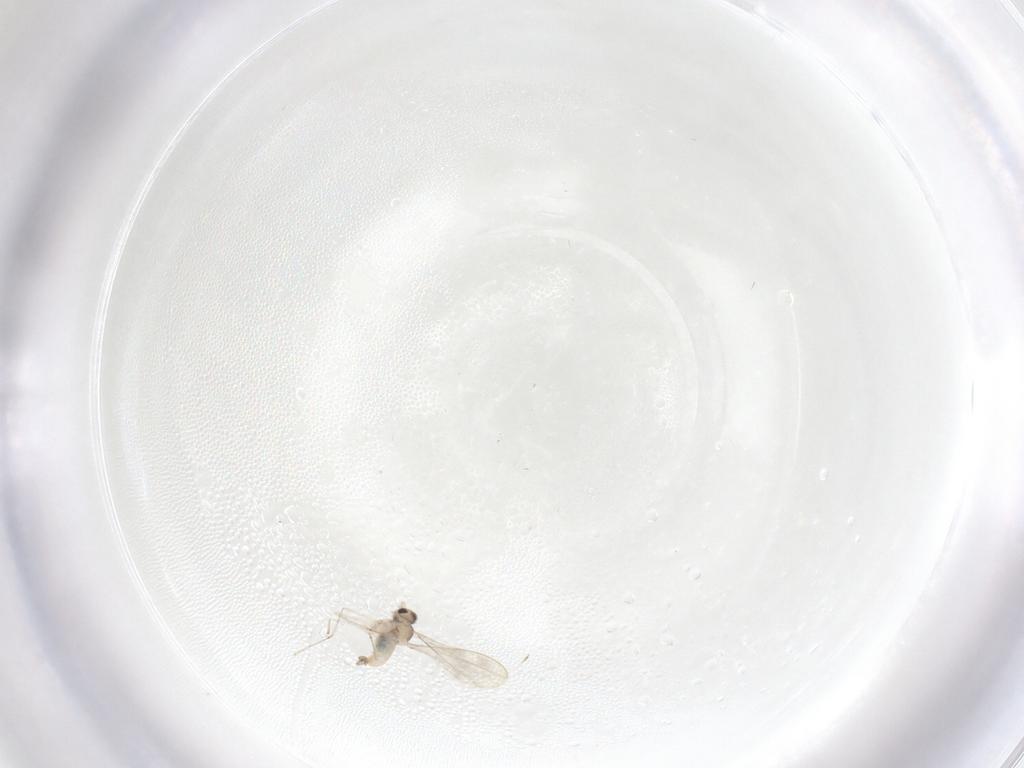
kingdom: Animalia
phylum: Arthropoda
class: Insecta
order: Diptera
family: Cecidomyiidae
